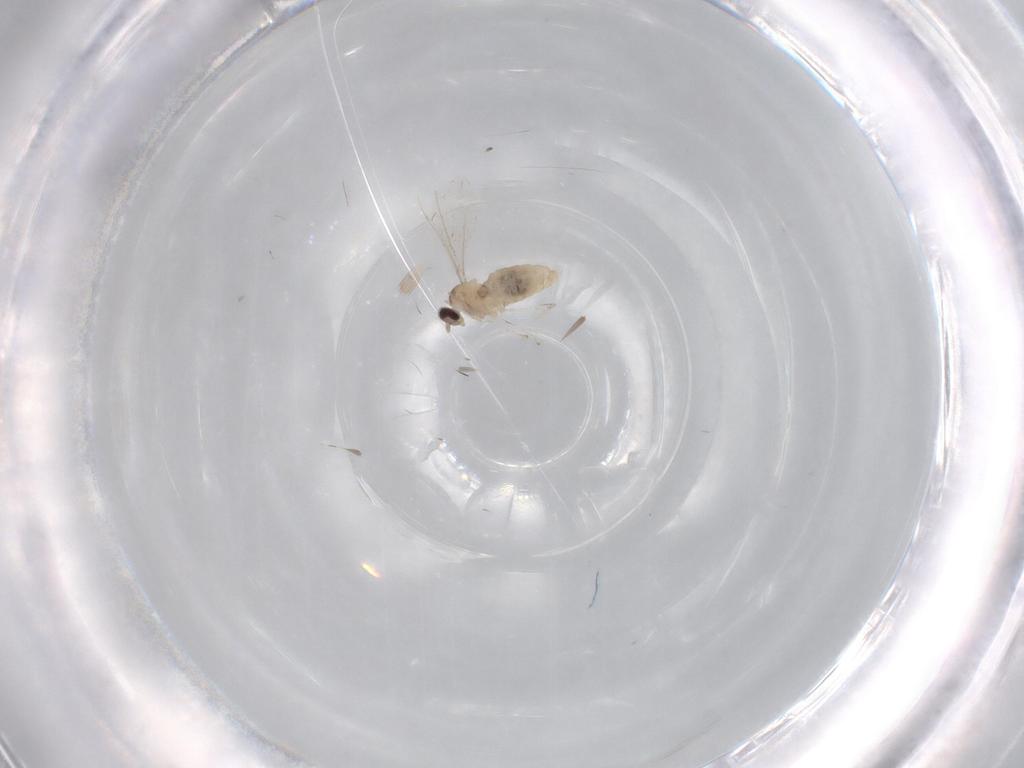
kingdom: Animalia
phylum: Arthropoda
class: Insecta
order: Diptera
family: Cecidomyiidae
